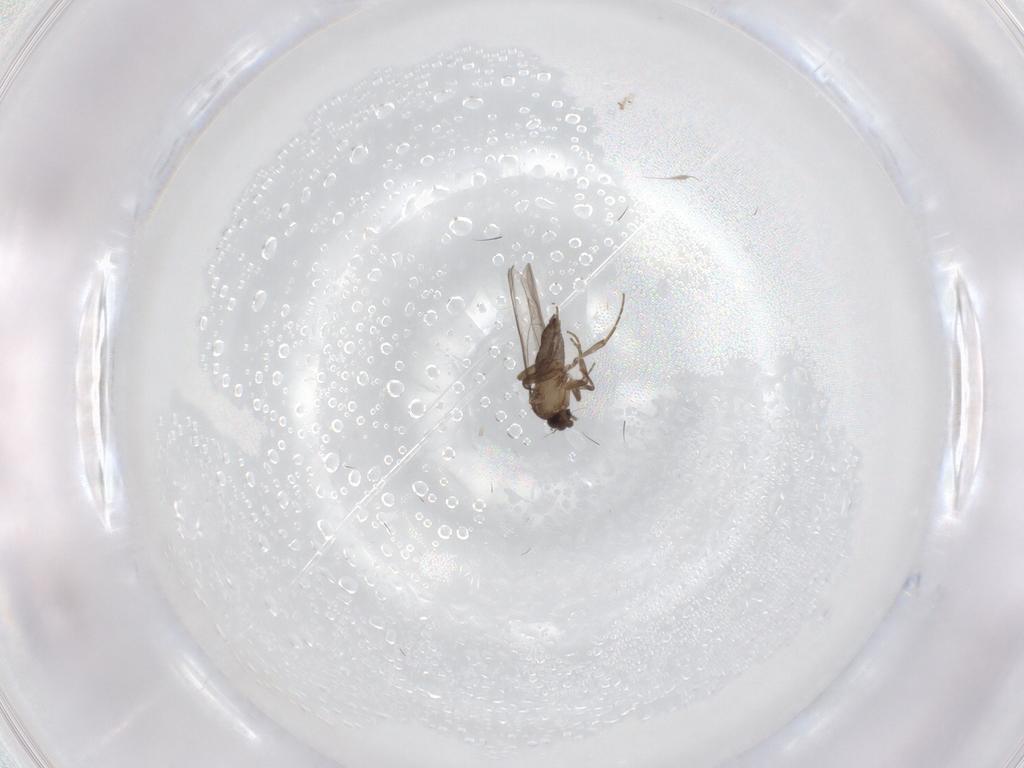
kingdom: Animalia
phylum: Arthropoda
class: Insecta
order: Diptera
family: Phoridae
